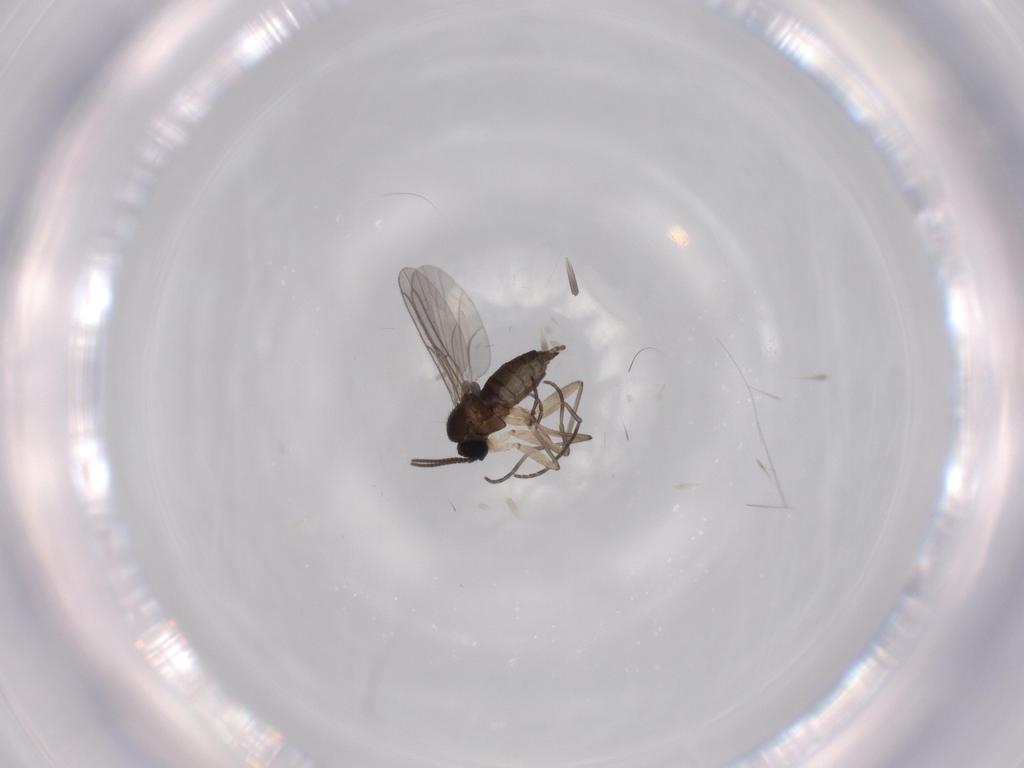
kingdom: Animalia
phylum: Arthropoda
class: Insecta
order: Diptera
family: Sciaridae
